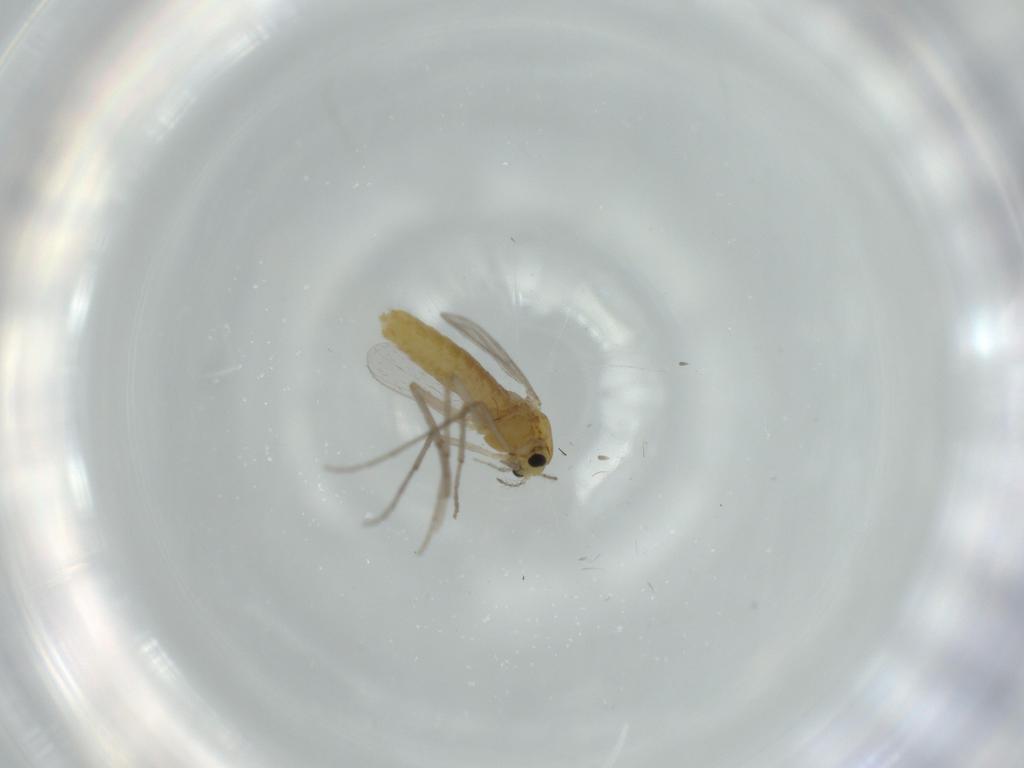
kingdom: Animalia
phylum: Arthropoda
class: Insecta
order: Diptera
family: Chironomidae
